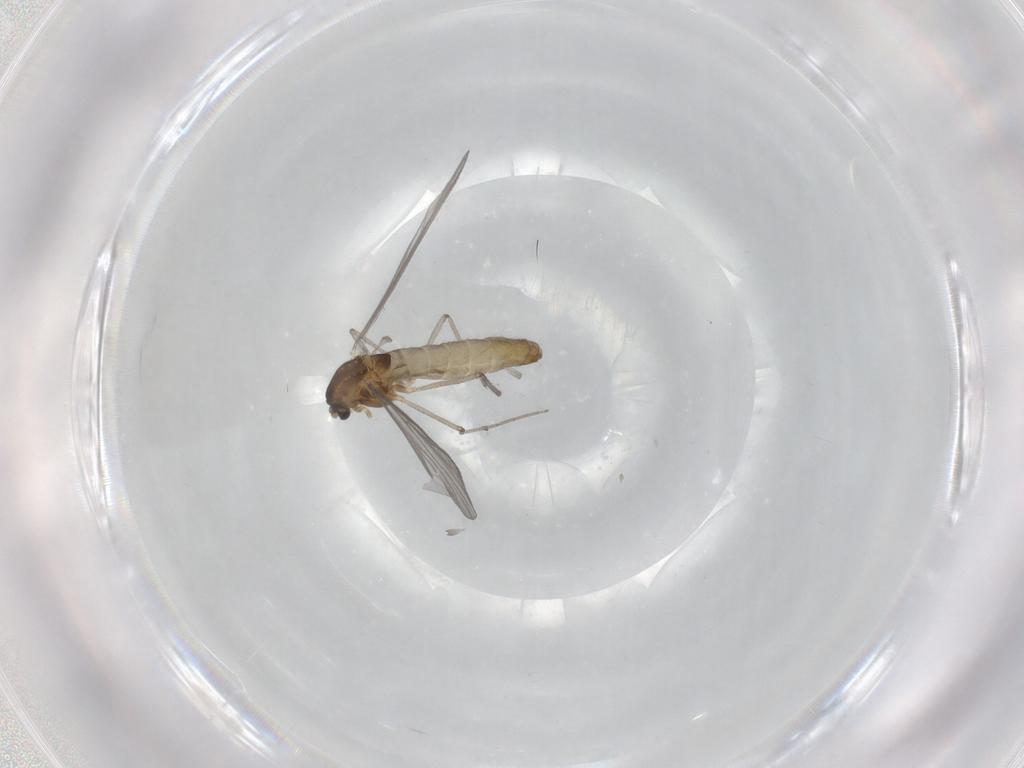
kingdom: Animalia
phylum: Arthropoda
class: Insecta
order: Diptera
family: Chironomidae
